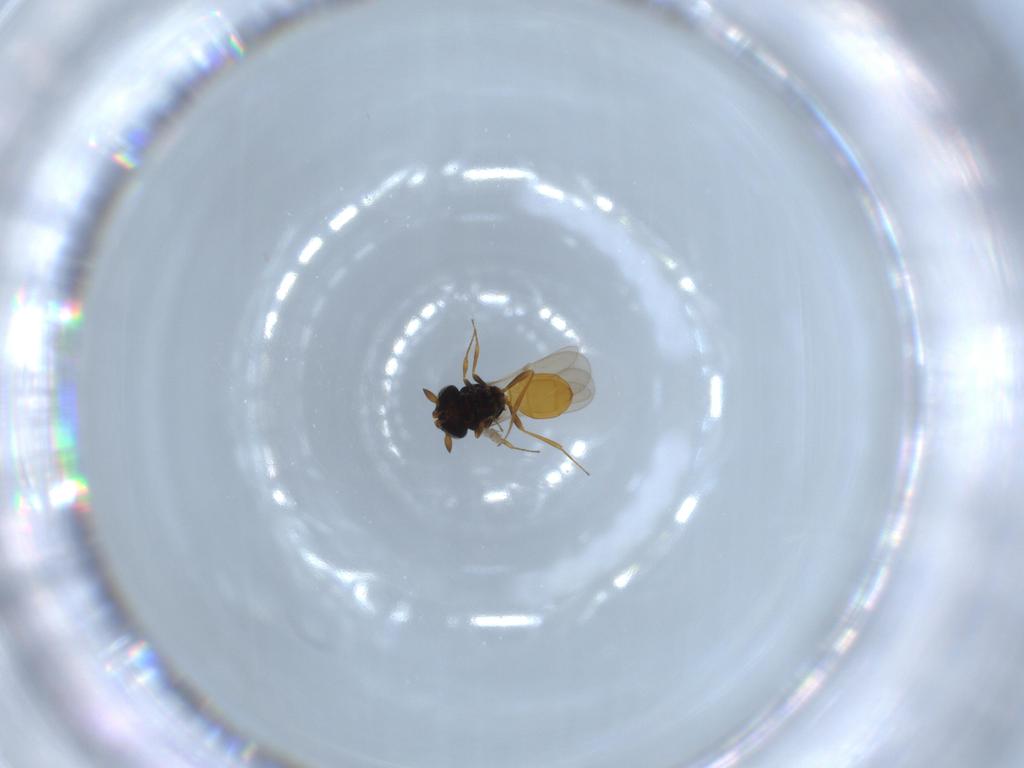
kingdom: Animalia
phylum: Arthropoda
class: Insecta
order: Hymenoptera
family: Scelionidae
